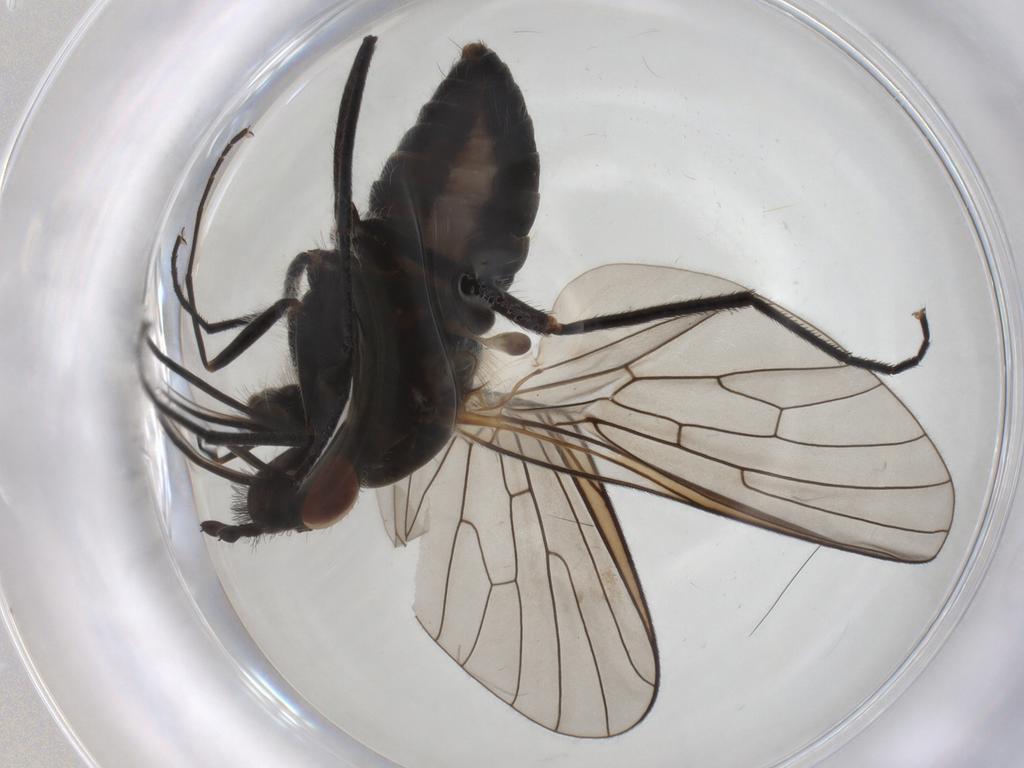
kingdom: Animalia
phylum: Arthropoda
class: Insecta
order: Diptera
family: Bombyliidae
